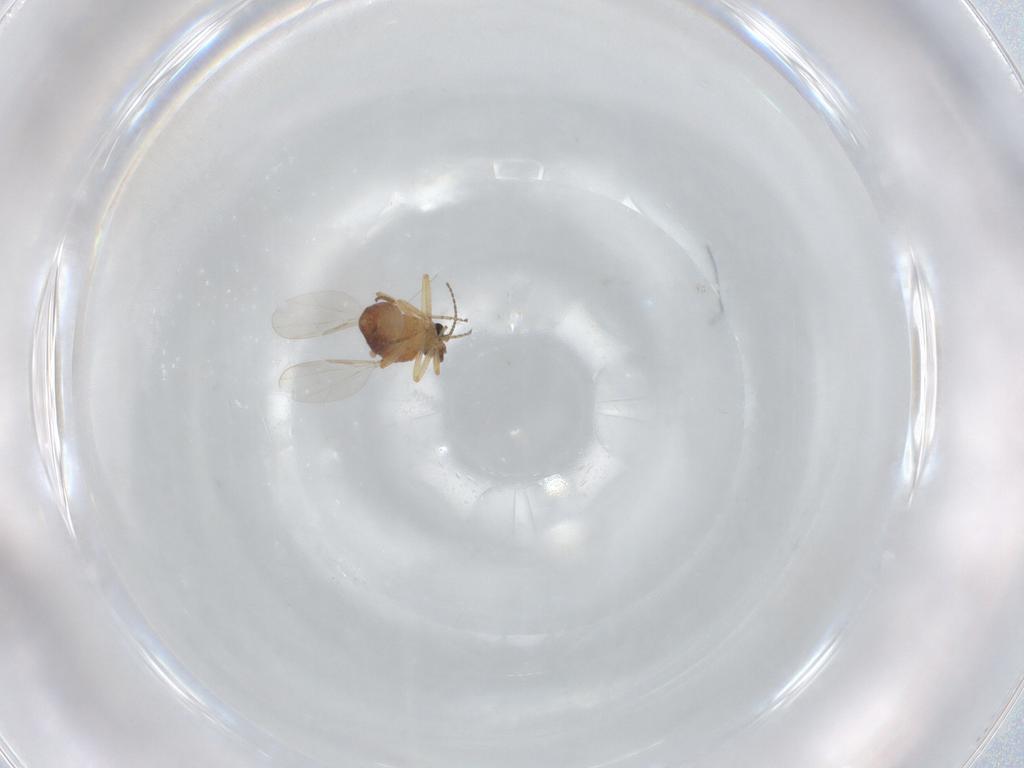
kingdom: Animalia
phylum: Arthropoda
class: Insecta
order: Diptera
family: Ceratopogonidae
